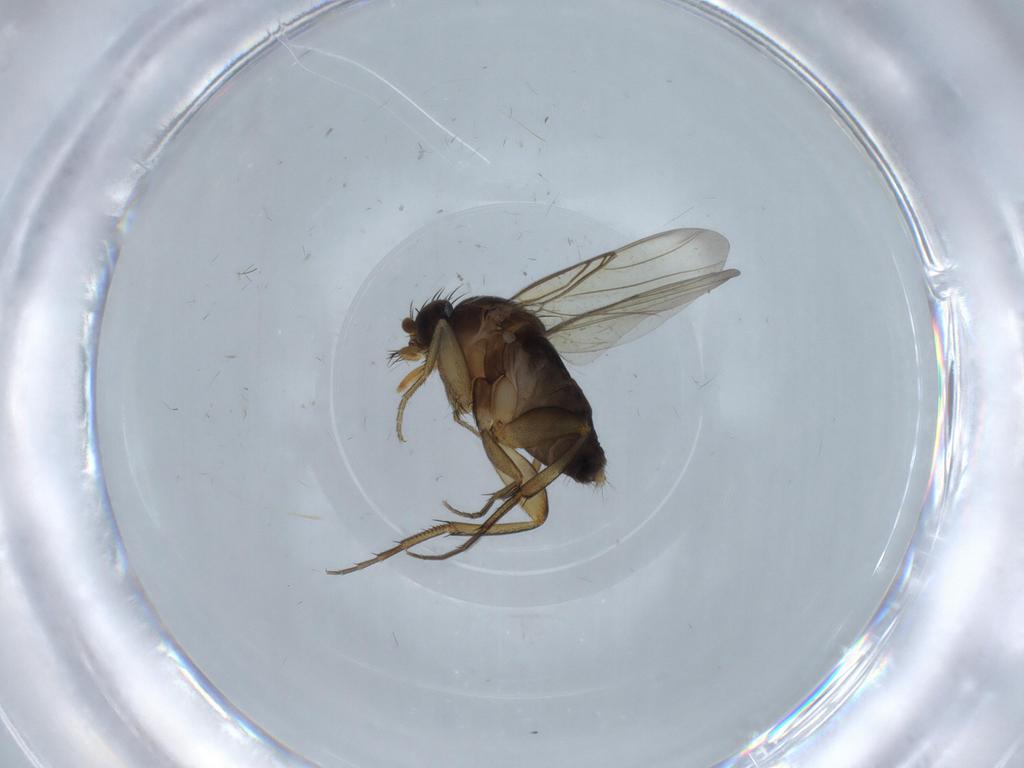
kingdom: Animalia
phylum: Arthropoda
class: Insecta
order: Diptera
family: Phoridae
